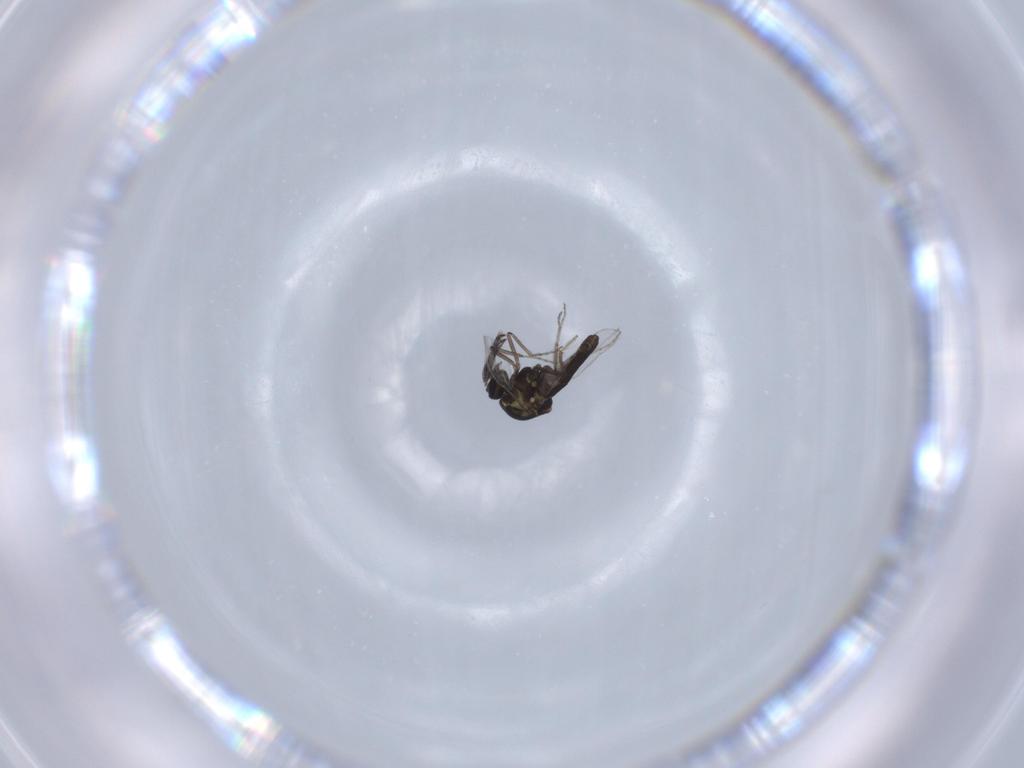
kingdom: Animalia
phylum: Arthropoda
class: Insecta
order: Diptera
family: Ceratopogonidae
